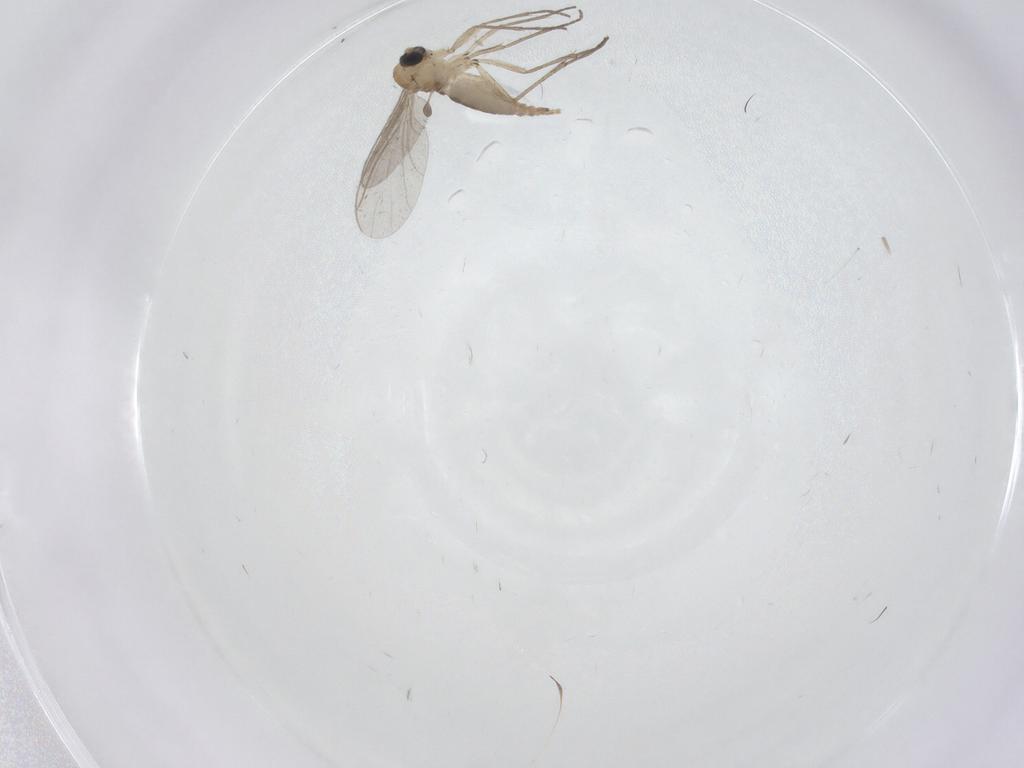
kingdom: Animalia
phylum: Arthropoda
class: Insecta
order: Diptera
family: Sciaridae
